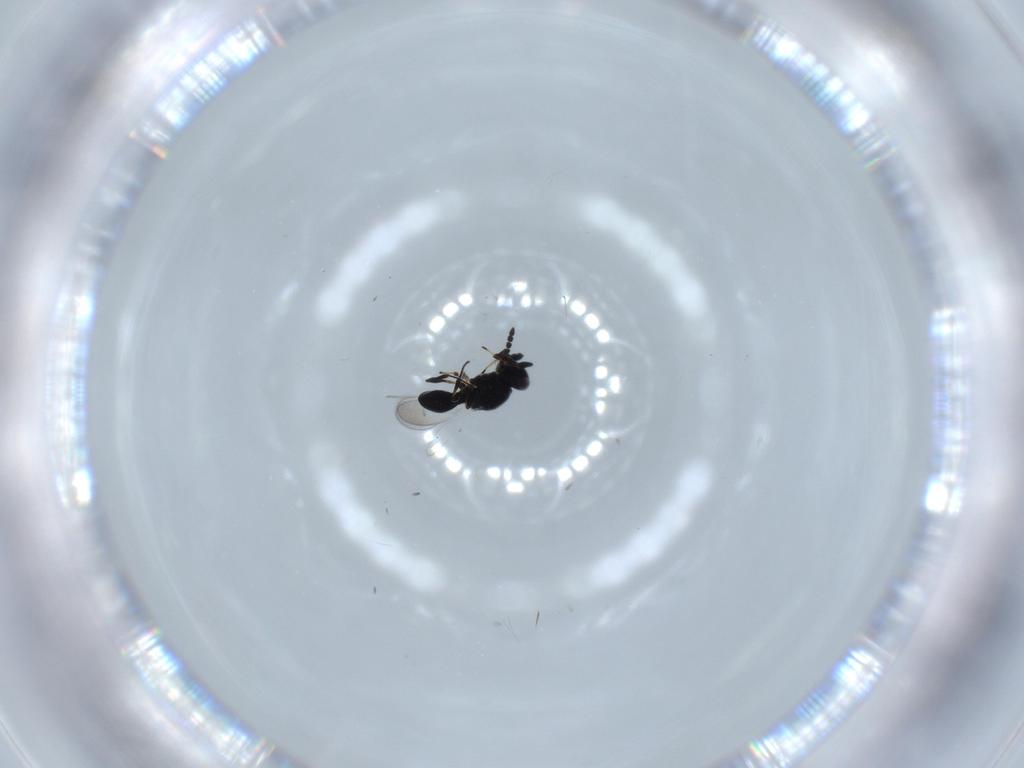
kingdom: Animalia
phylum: Arthropoda
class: Insecta
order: Hymenoptera
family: Platygastridae
